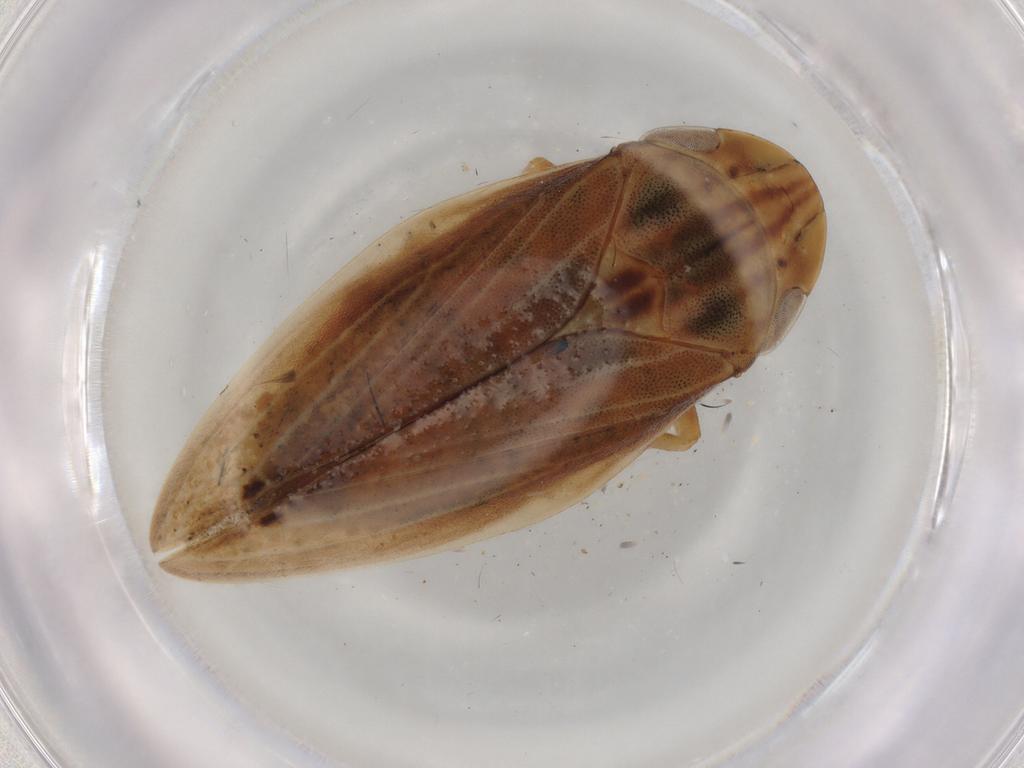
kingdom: Animalia
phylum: Arthropoda
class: Insecta
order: Hemiptera
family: Cicadellidae
